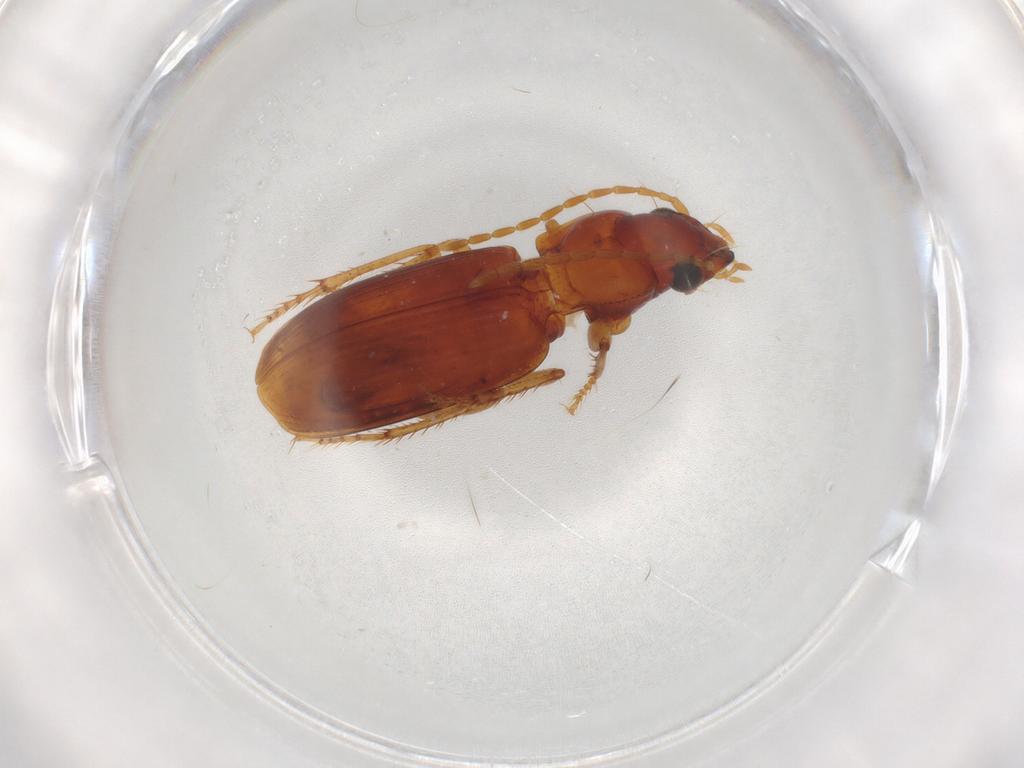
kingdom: Animalia
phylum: Arthropoda
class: Insecta
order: Coleoptera
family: Carabidae
